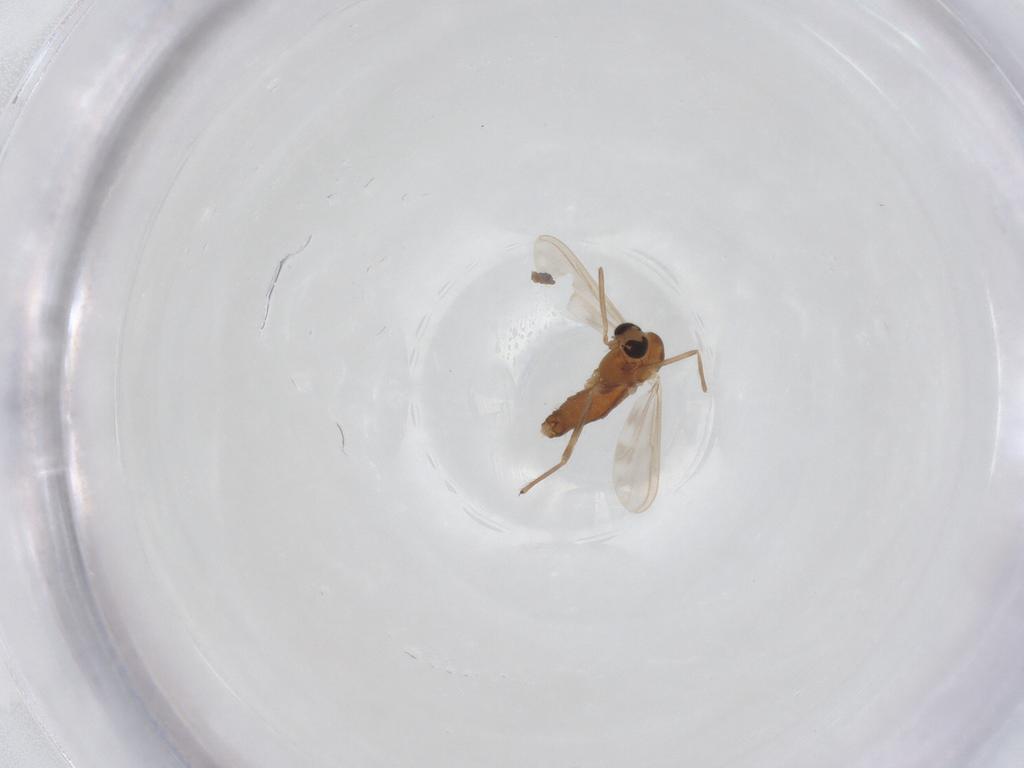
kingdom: Animalia
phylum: Arthropoda
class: Insecta
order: Diptera
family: Chironomidae
